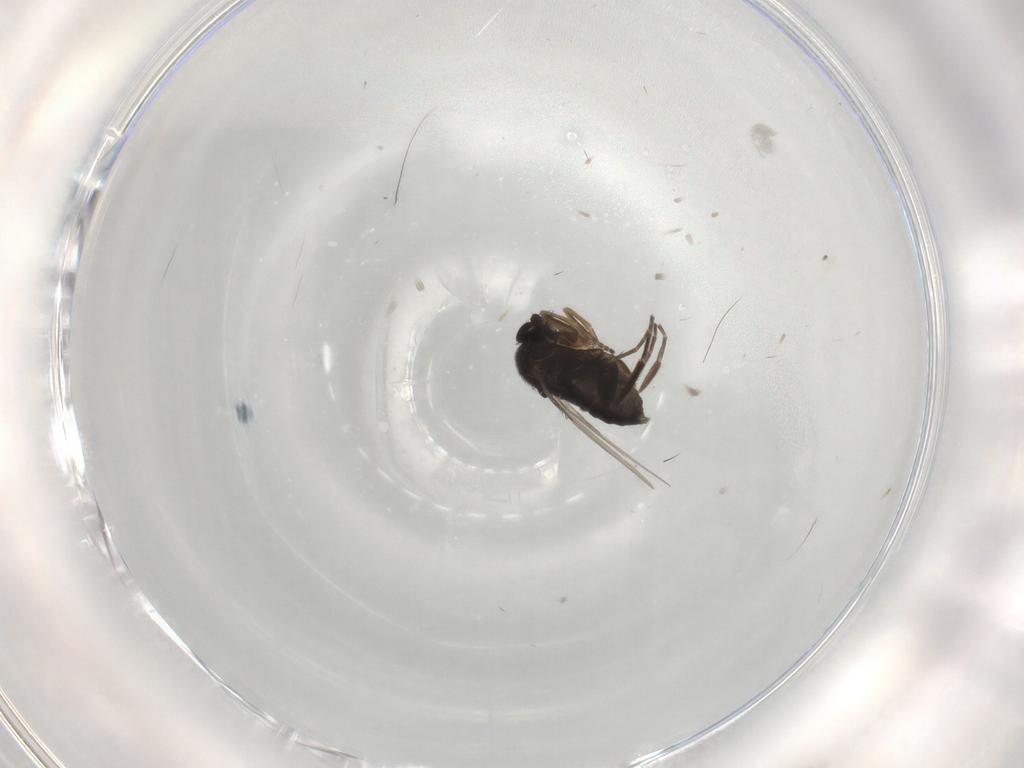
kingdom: Animalia
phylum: Arthropoda
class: Insecta
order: Diptera
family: Phoridae
